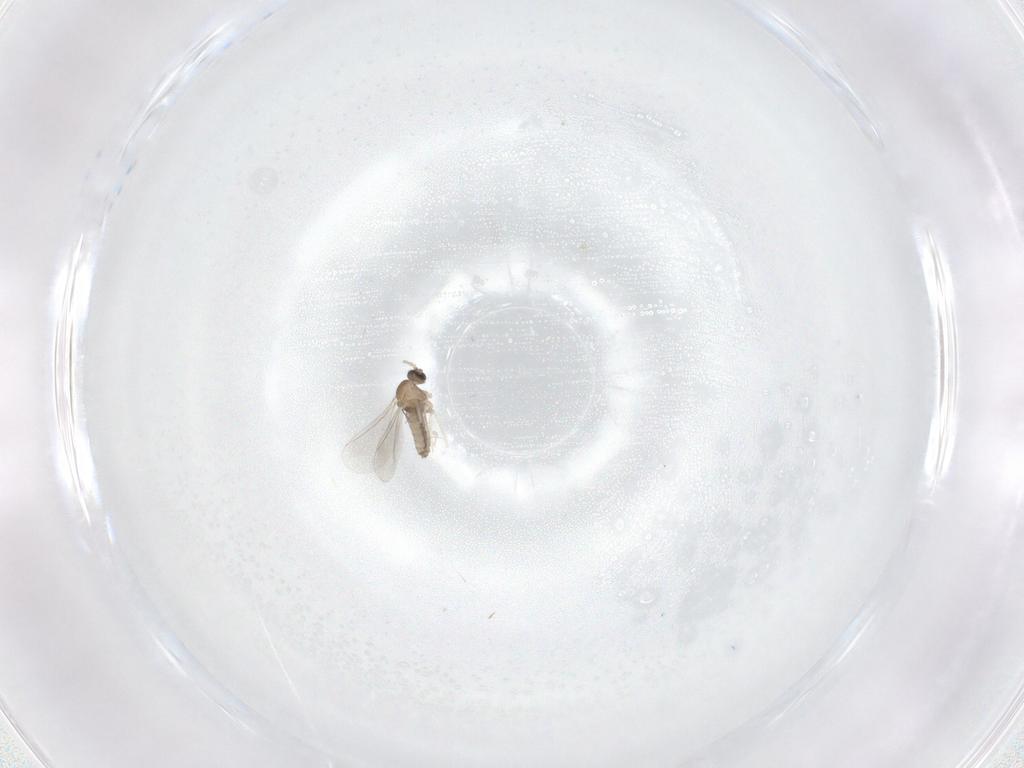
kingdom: Animalia
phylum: Arthropoda
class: Insecta
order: Diptera
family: Cecidomyiidae
